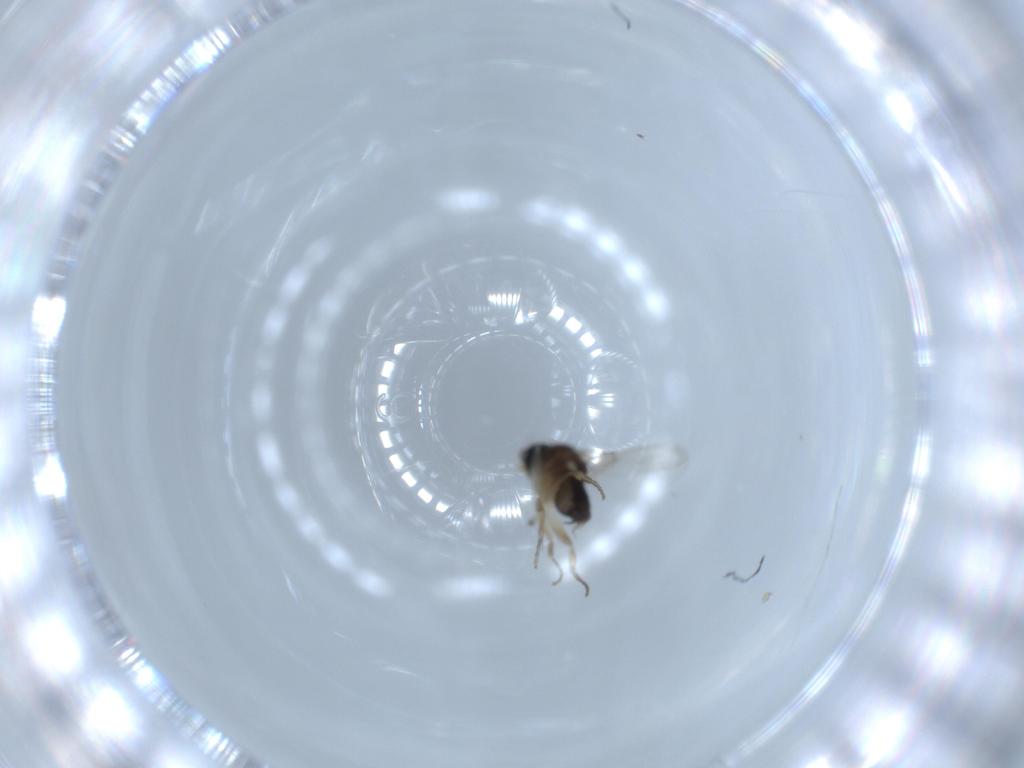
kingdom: Animalia
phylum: Arthropoda
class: Insecta
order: Diptera
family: Phoridae
